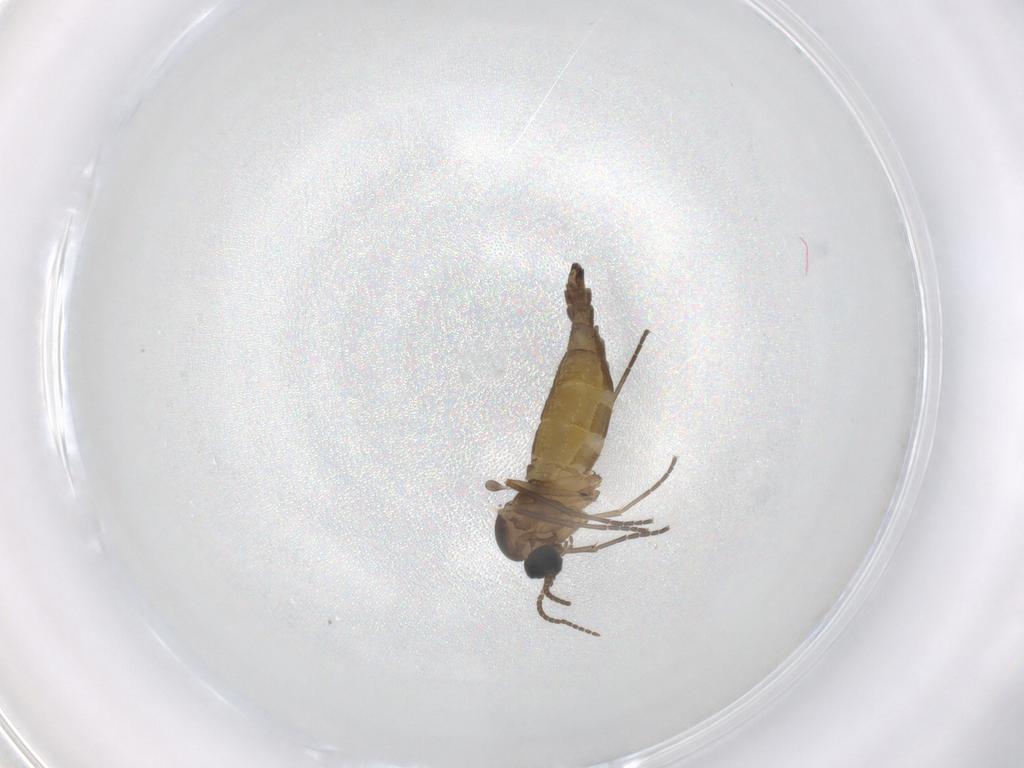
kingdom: Animalia
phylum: Arthropoda
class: Insecta
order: Diptera
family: Sciaridae
